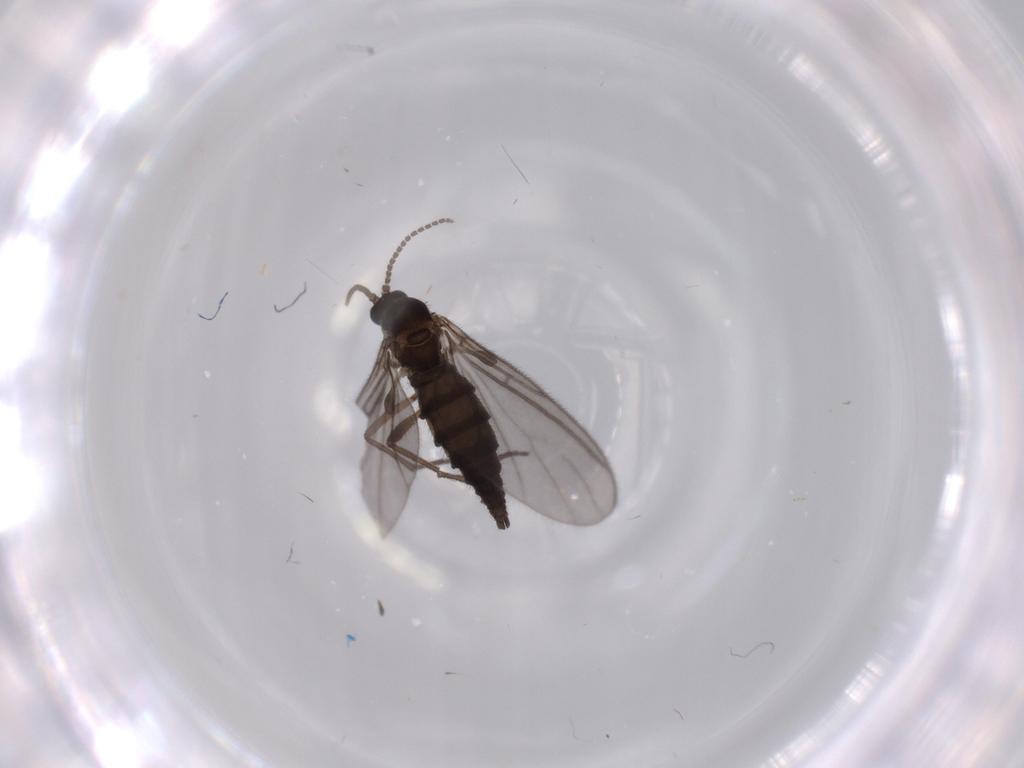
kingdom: Animalia
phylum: Arthropoda
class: Insecta
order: Diptera
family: Sciaridae
